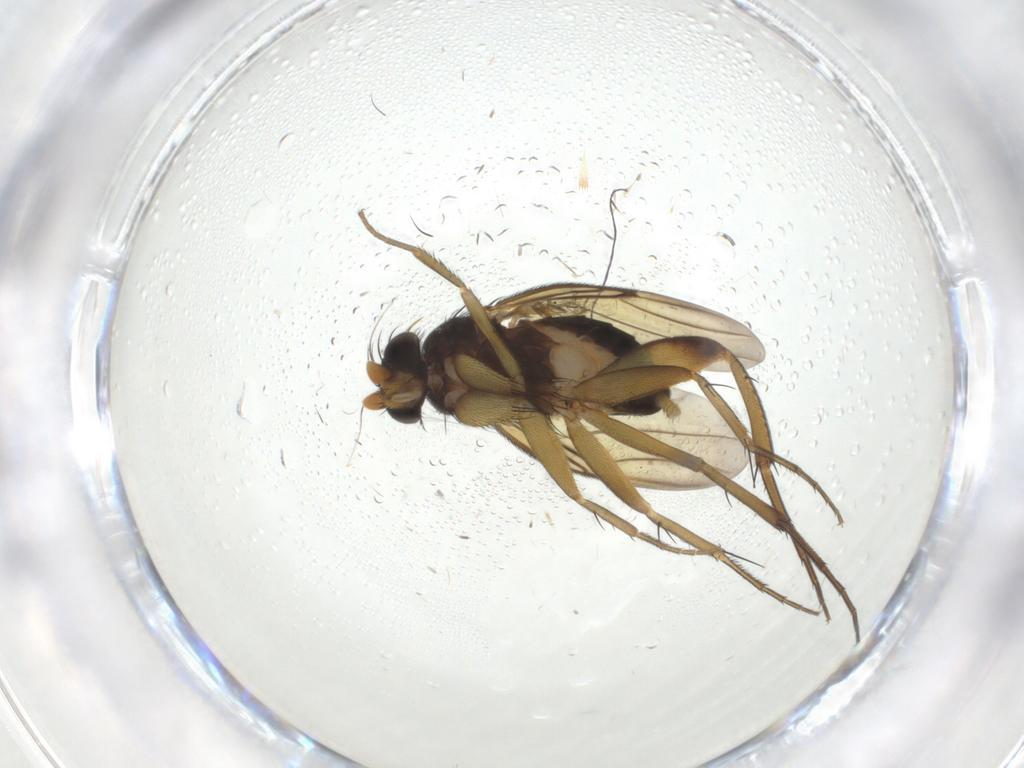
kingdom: Animalia
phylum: Arthropoda
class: Insecta
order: Diptera
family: Phoridae
